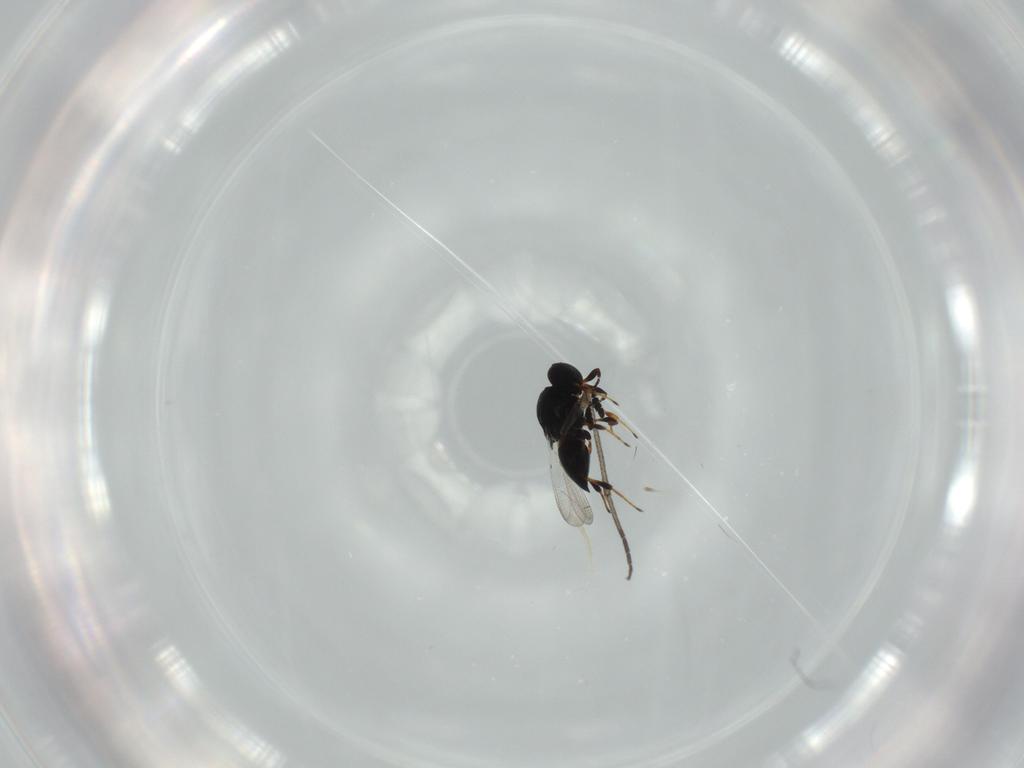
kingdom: Animalia
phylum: Arthropoda
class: Insecta
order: Hymenoptera
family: Platygastridae
